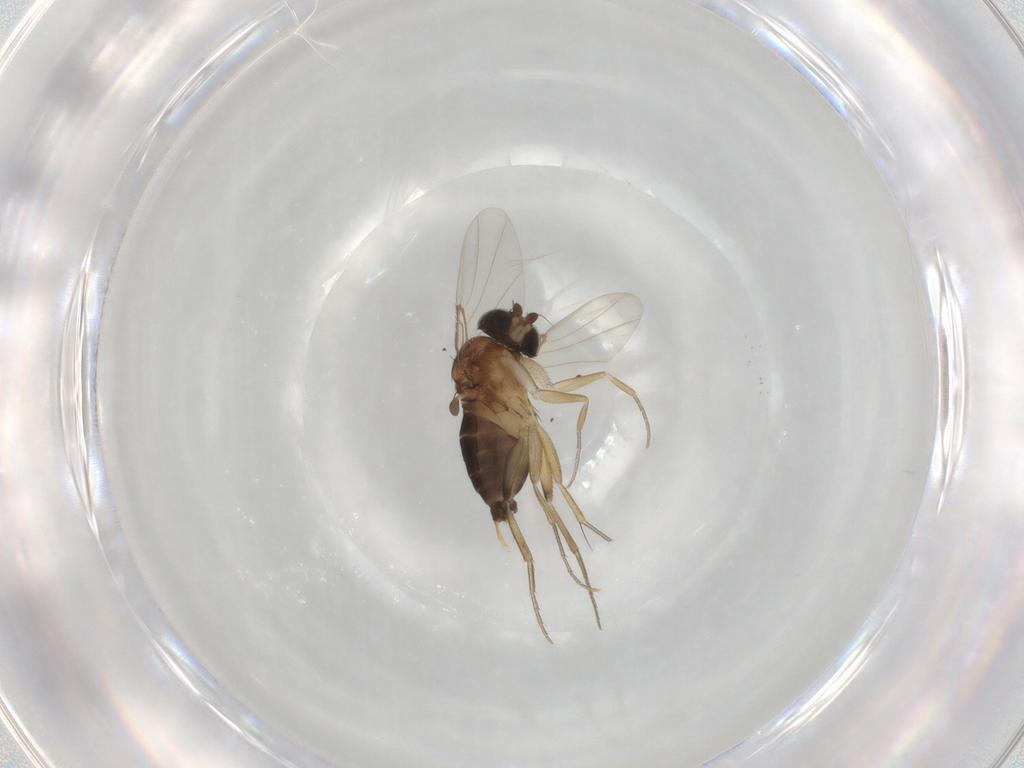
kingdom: Animalia
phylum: Arthropoda
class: Insecta
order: Diptera
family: Phoridae
